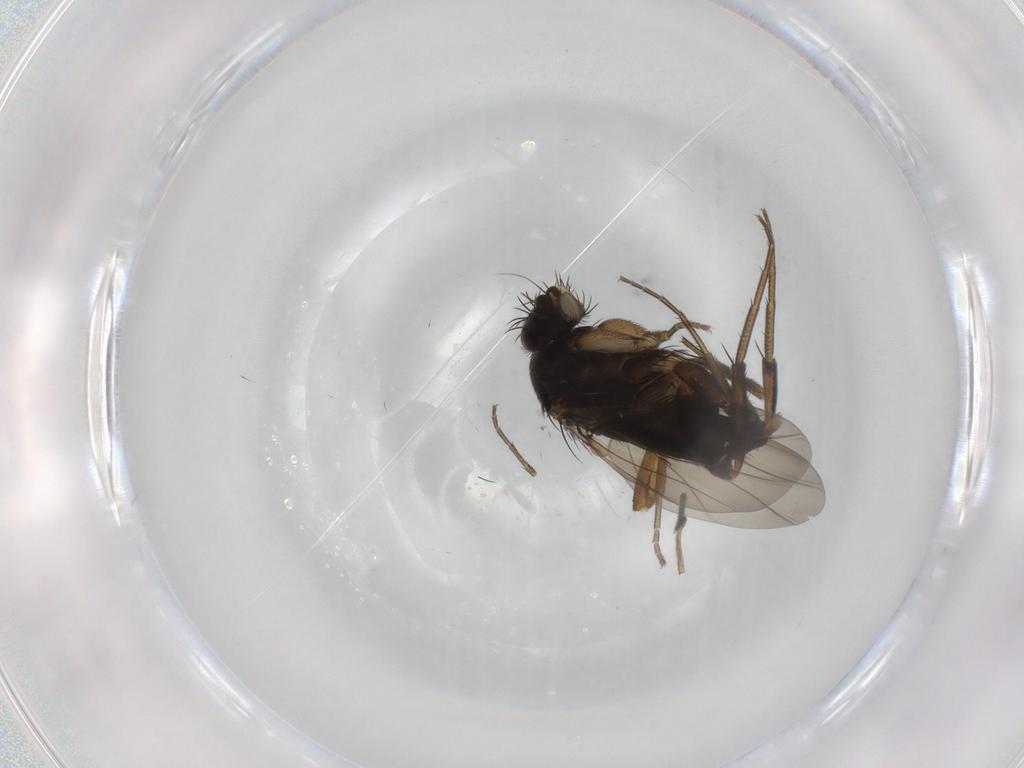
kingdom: Animalia
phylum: Arthropoda
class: Insecta
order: Diptera
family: Phoridae
